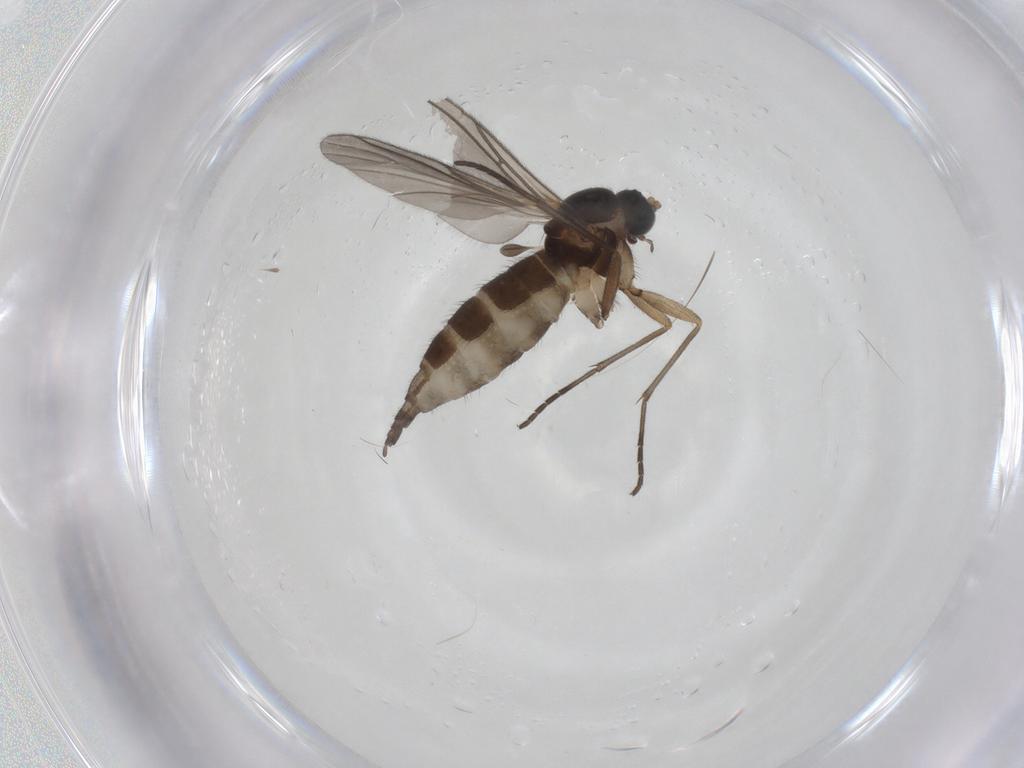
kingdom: Animalia
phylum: Arthropoda
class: Insecta
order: Diptera
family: Sciaridae
